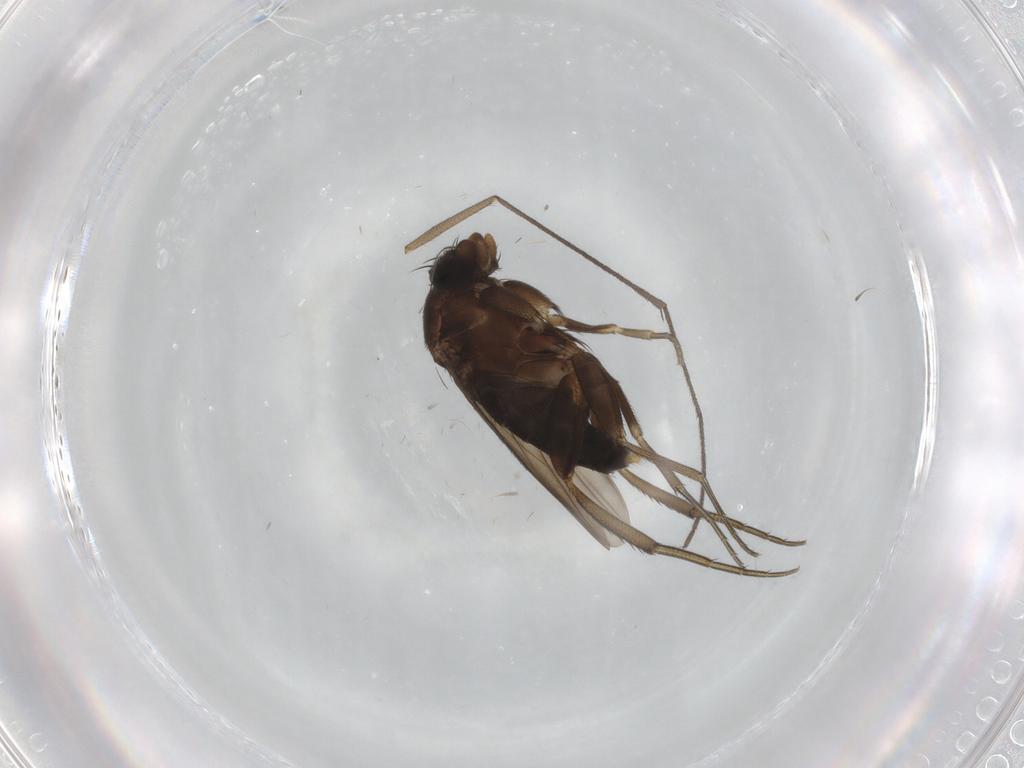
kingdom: Animalia
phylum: Arthropoda
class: Insecta
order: Diptera
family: Phoridae
